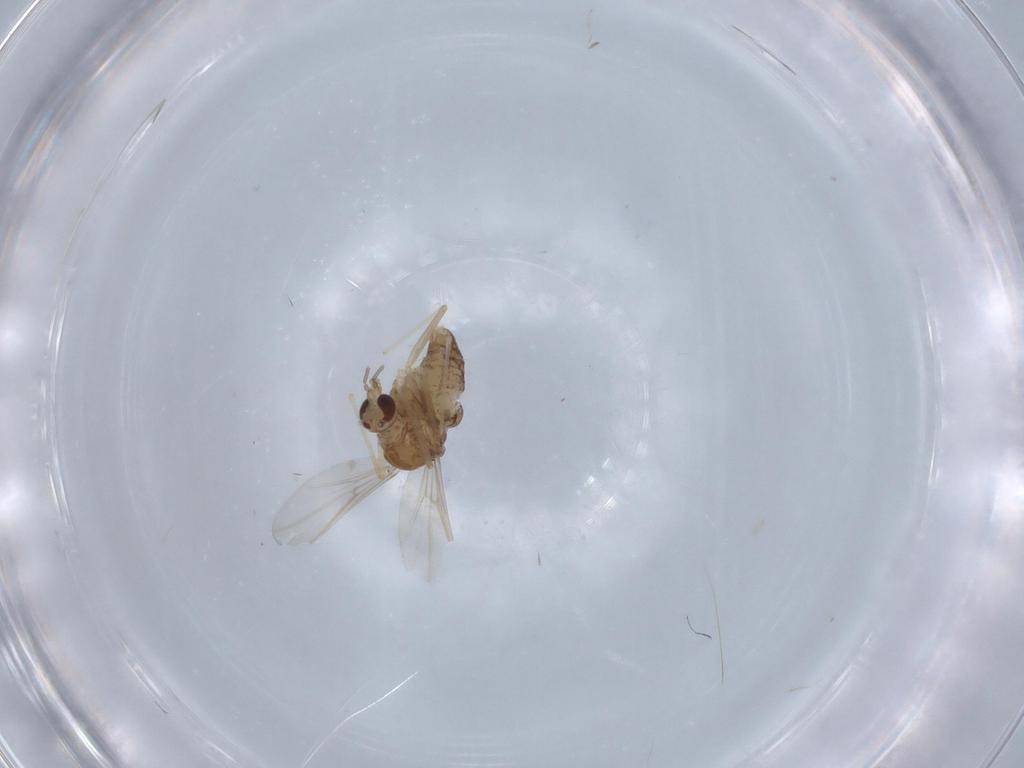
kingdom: Animalia
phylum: Arthropoda
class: Insecta
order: Diptera
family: Chironomidae
